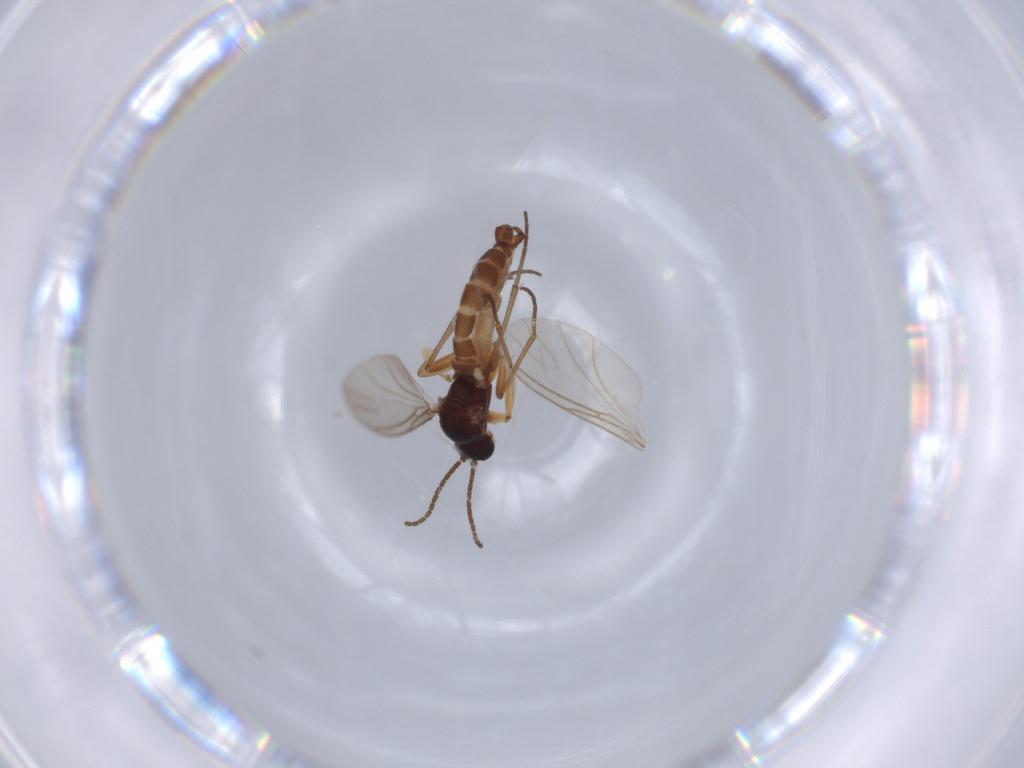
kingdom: Animalia
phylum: Arthropoda
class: Insecta
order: Diptera
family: Sciaridae
